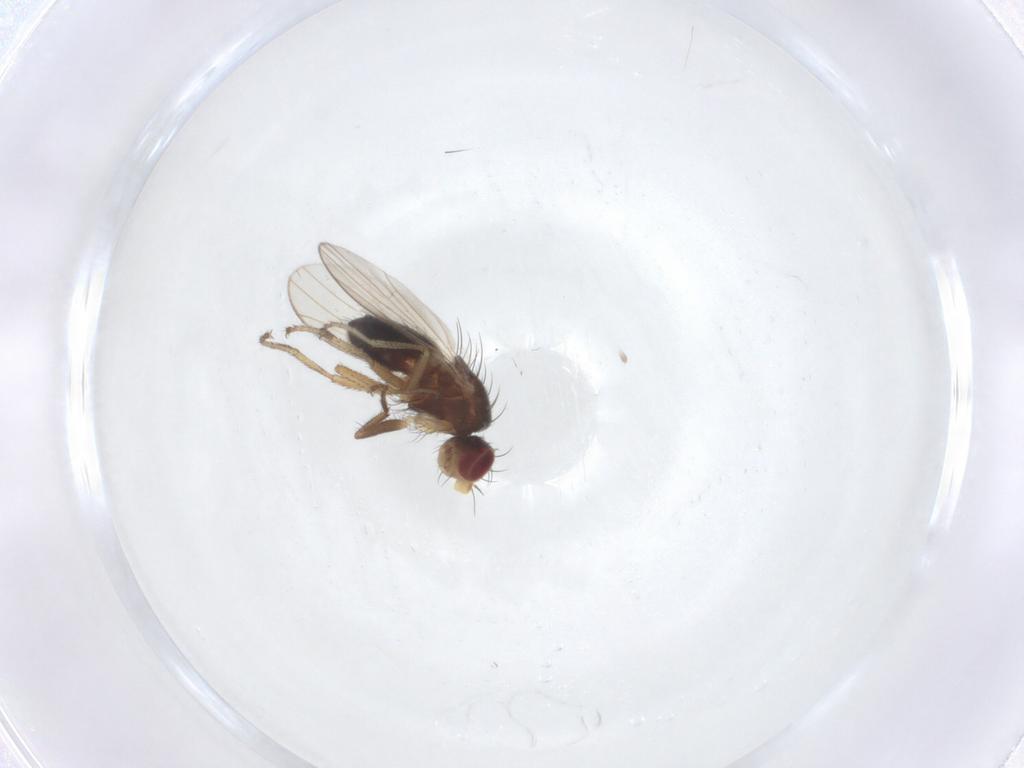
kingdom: Animalia
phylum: Arthropoda
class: Insecta
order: Diptera
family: Heleomyzidae
